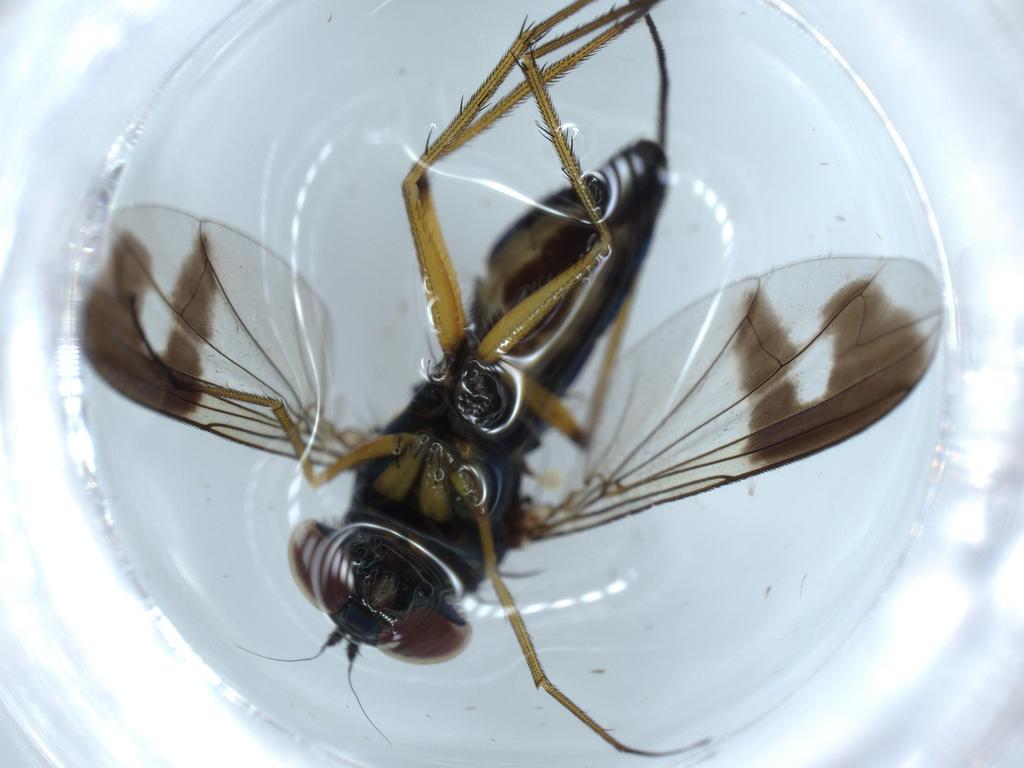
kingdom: Animalia
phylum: Arthropoda
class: Insecta
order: Diptera
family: Dolichopodidae
